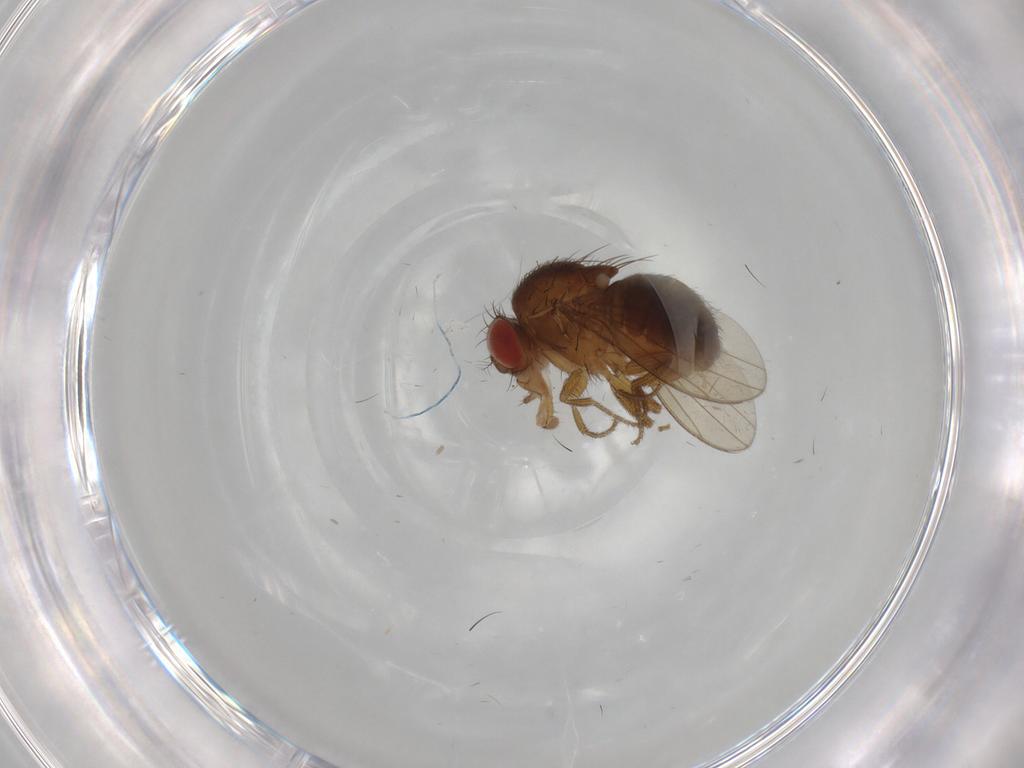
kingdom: Animalia
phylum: Arthropoda
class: Insecta
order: Diptera
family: Drosophilidae
